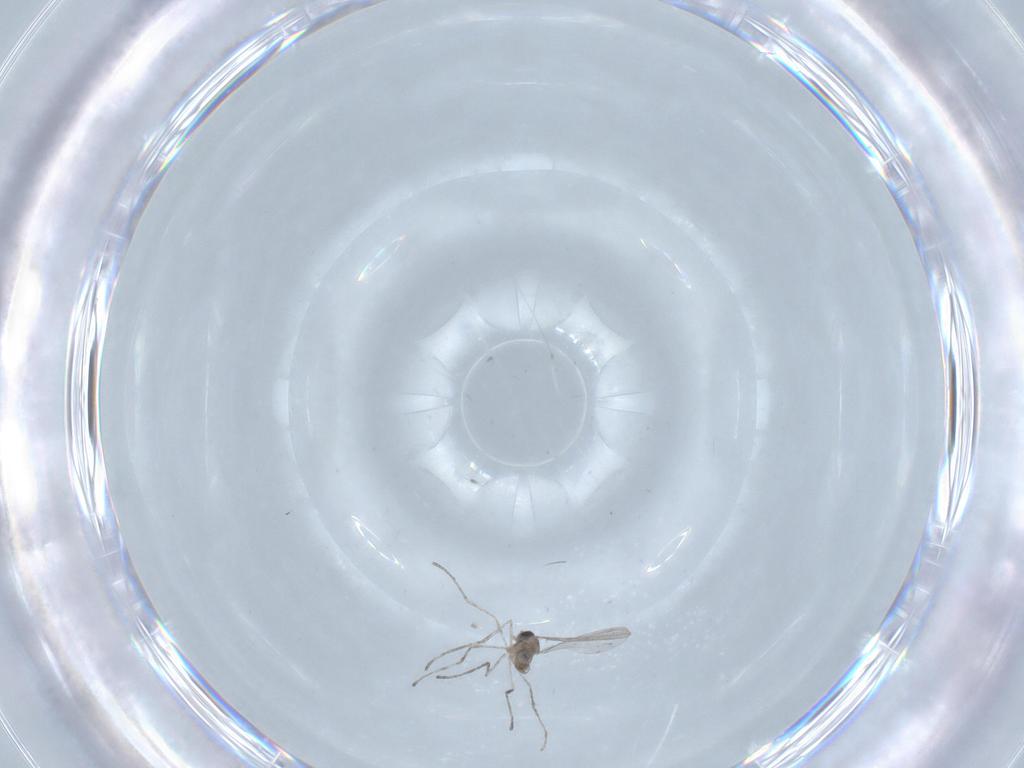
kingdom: Animalia
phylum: Arthropoda
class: Insecta
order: Diptera
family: Chironomidae
